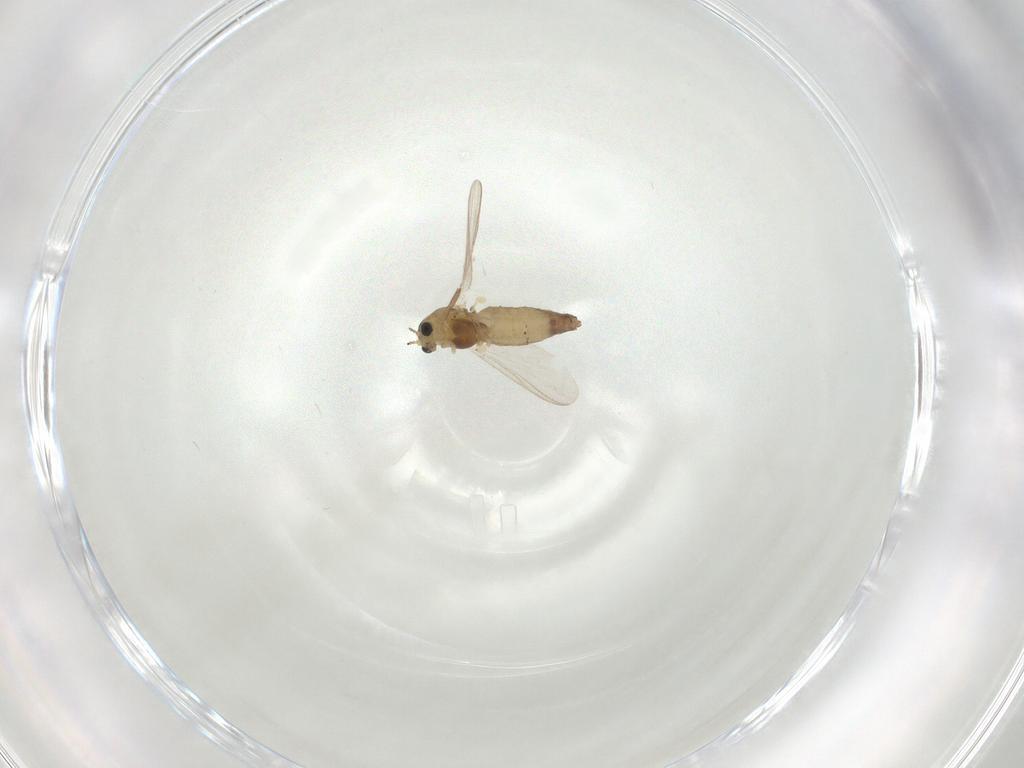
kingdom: Animalia
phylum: Arthropoda
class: Insecta
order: Diptera
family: Chironomidae
